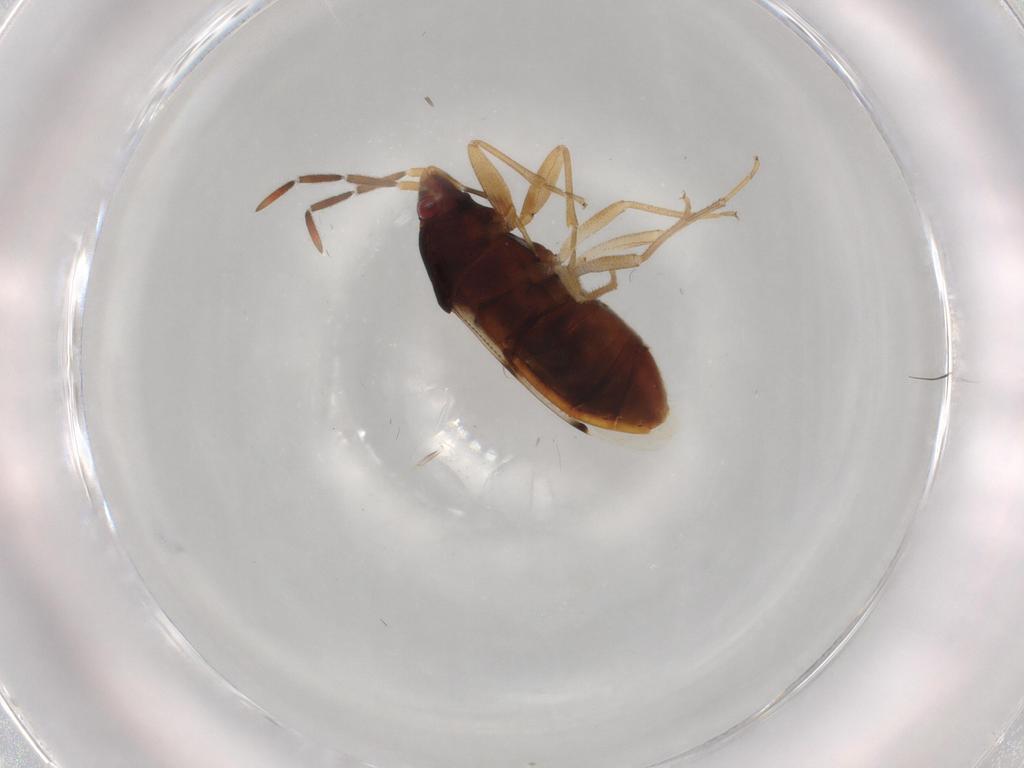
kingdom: Animalia
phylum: Arthropoda
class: Insecta
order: Hemiptera
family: Rhyparochromidae
